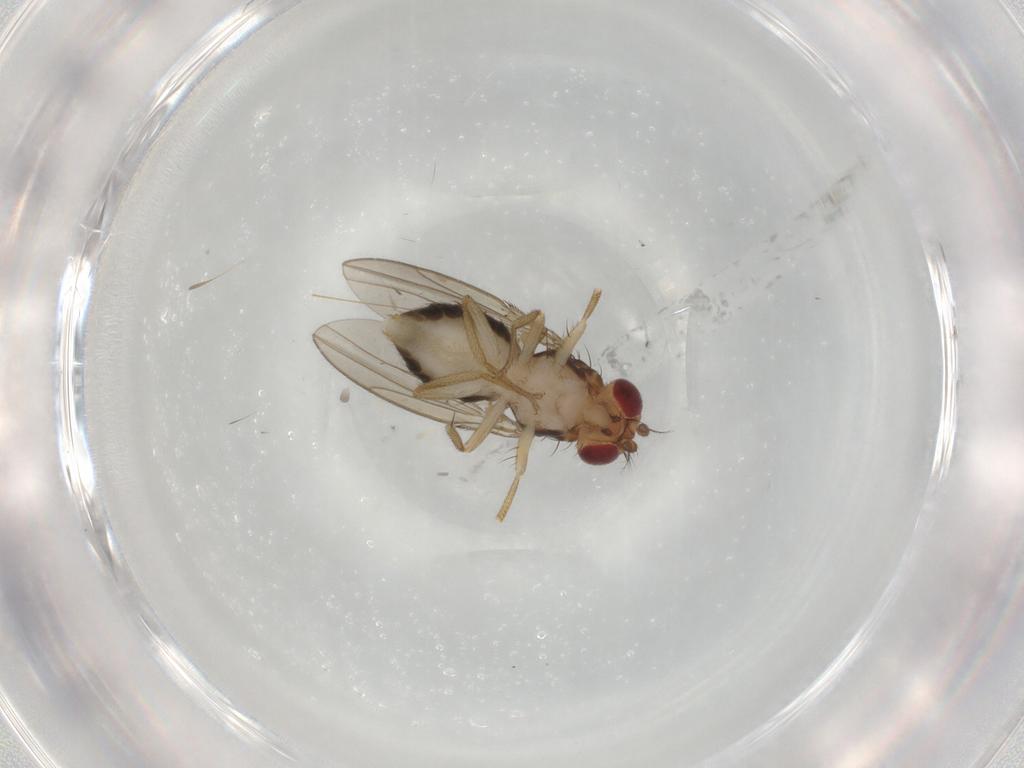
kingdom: Animalia
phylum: Arthropoda
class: Insecta
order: Diptera
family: Drosophilidae
